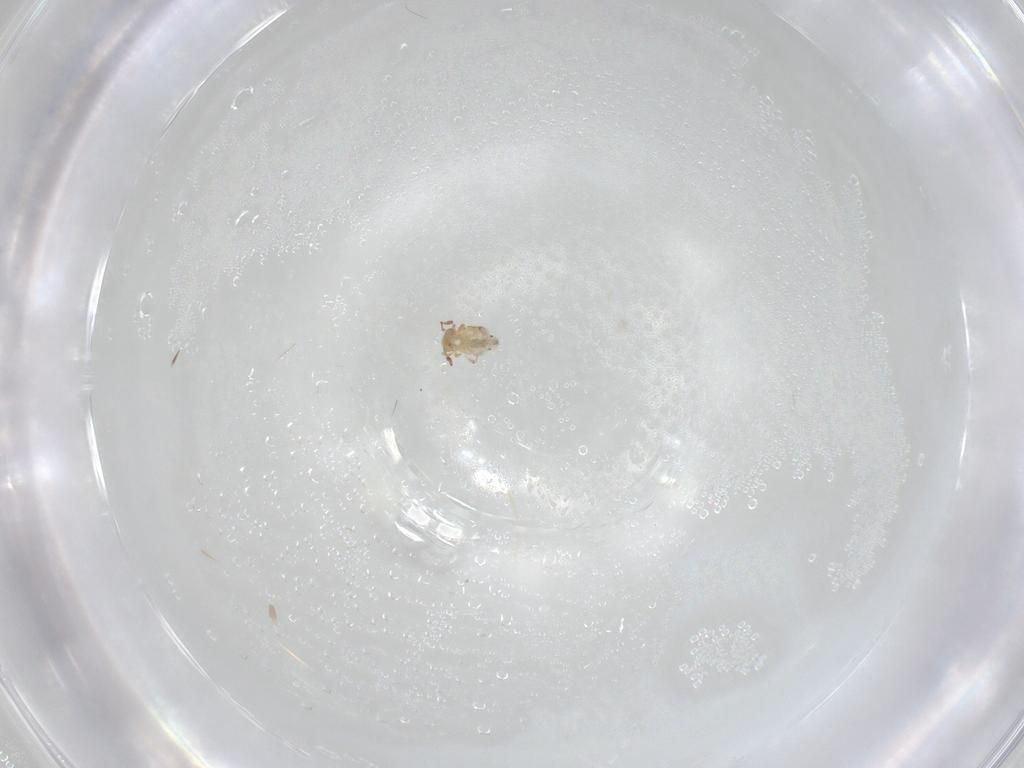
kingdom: Animalia
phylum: Arthropoda
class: Collembola
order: Symphypleona
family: Bourletiellidae
